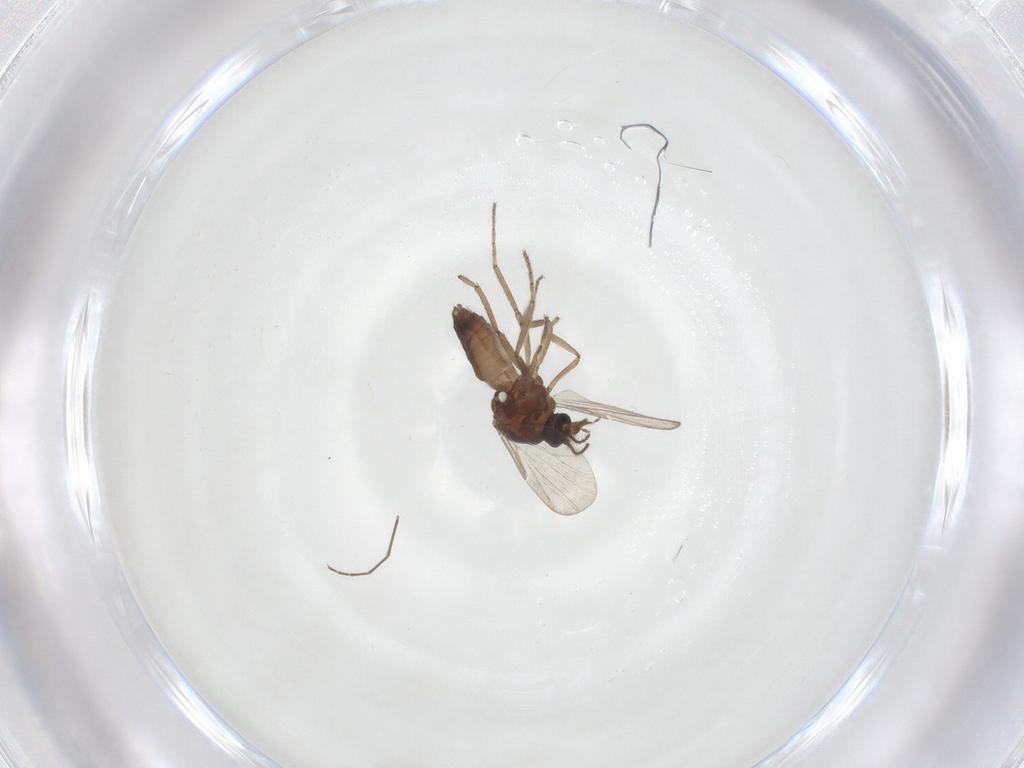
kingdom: Animalia
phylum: Arthropoda
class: Insecta
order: Diptera
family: Ceratopogonidae
